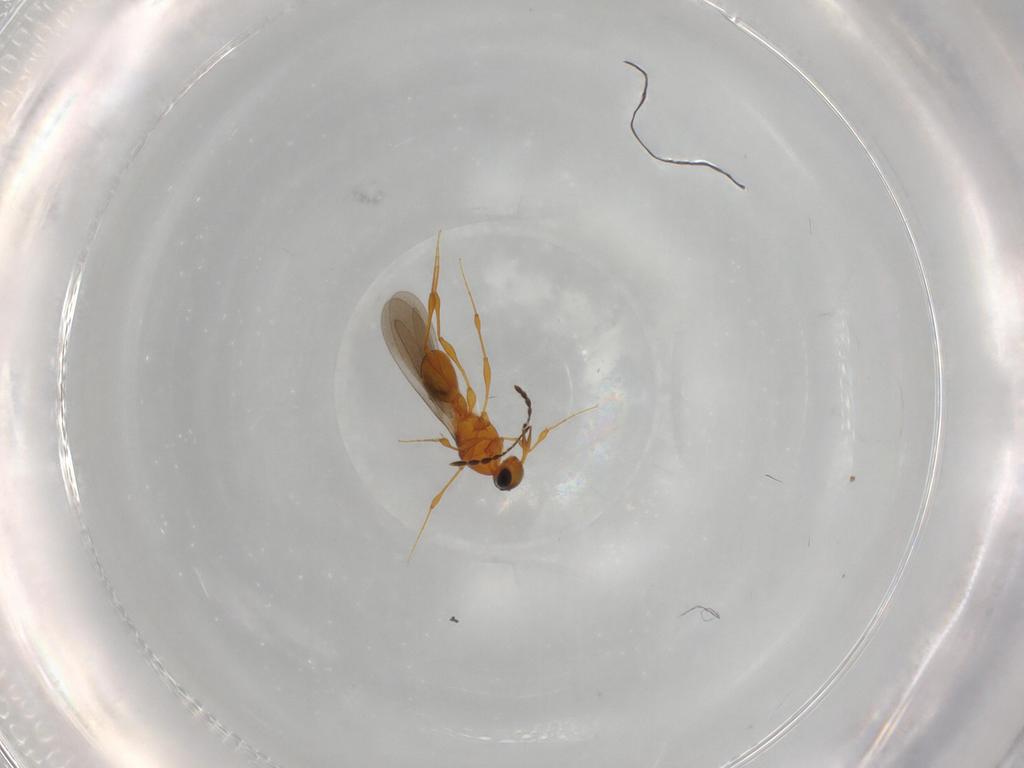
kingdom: Animalia
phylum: Arthropoda
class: Insecta
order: Hymenoptera
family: Platygastridae
